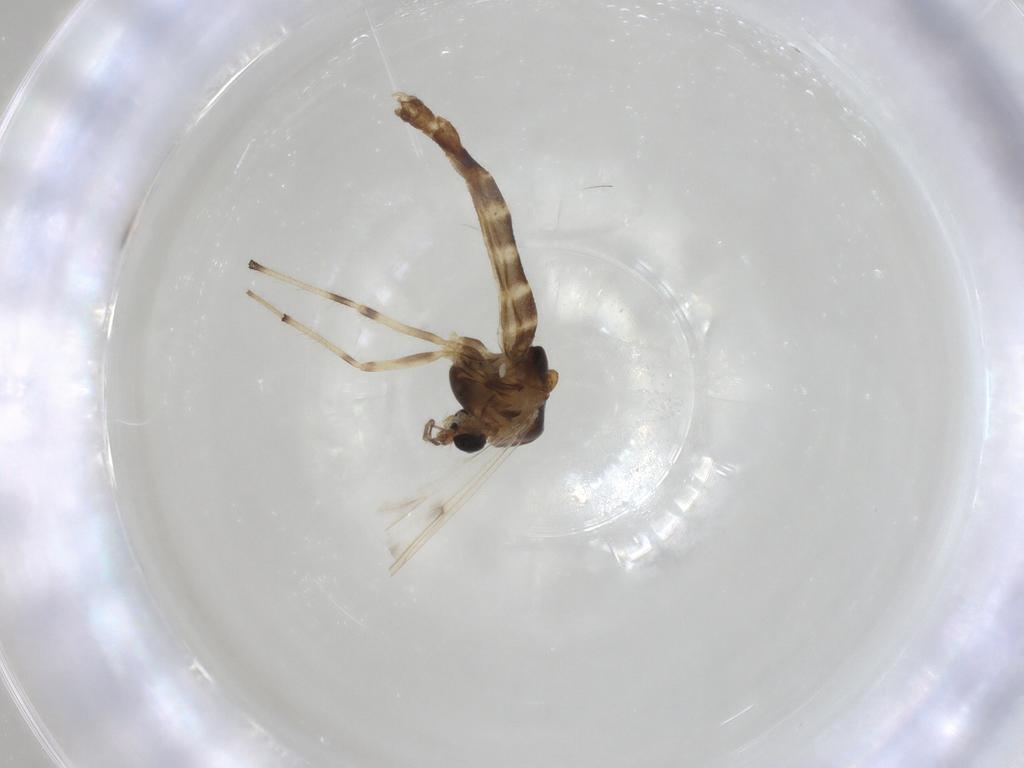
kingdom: Animalia
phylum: Arthropoda
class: Insecta
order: Diptera
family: Chironomidae
